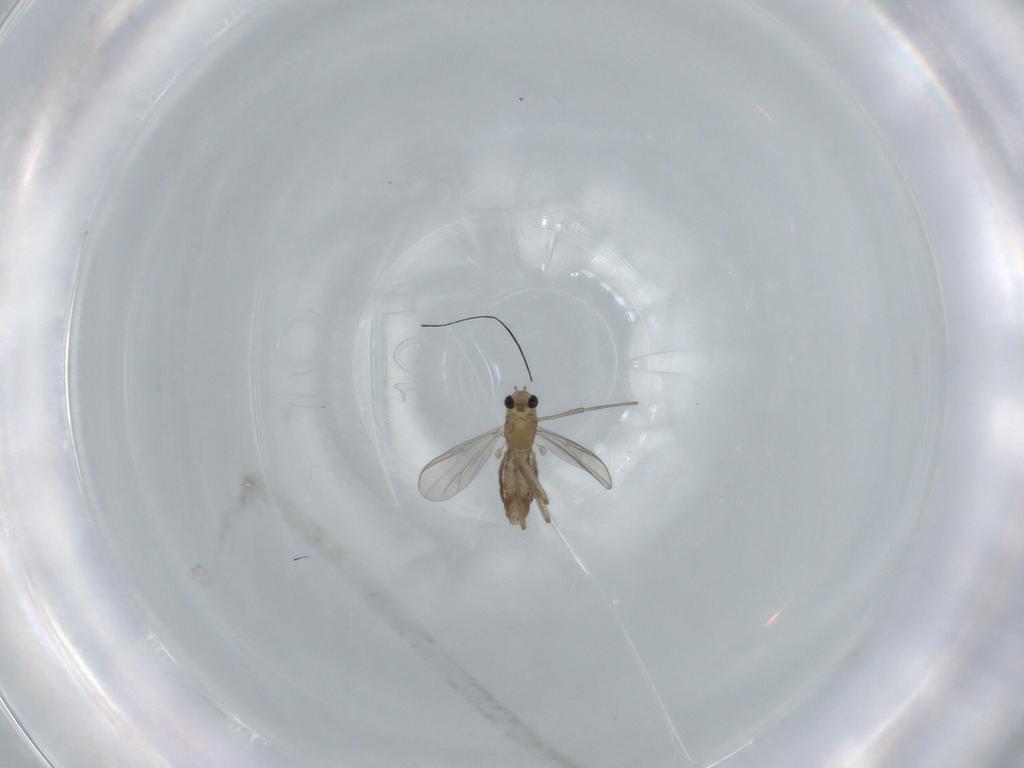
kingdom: Animalia
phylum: Arthropoda
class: Insecta
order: Diptera
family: Chironomidae
